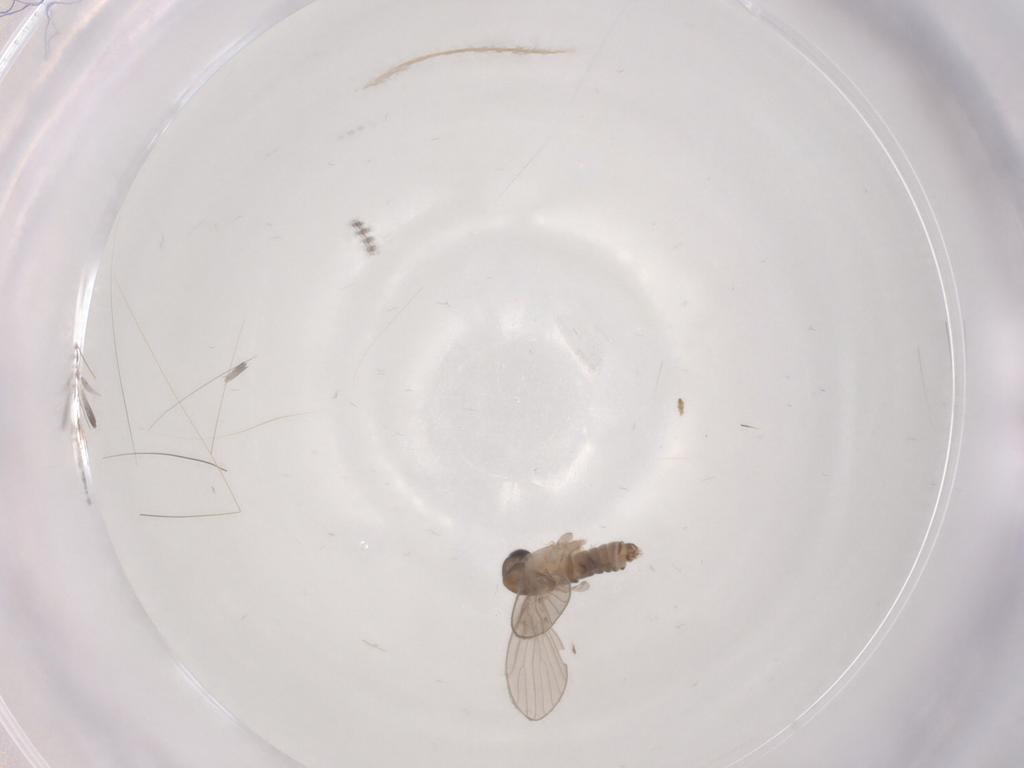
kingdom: Animalia
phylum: Arthropoda
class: Insecta
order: Diptera
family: Chironomidae
